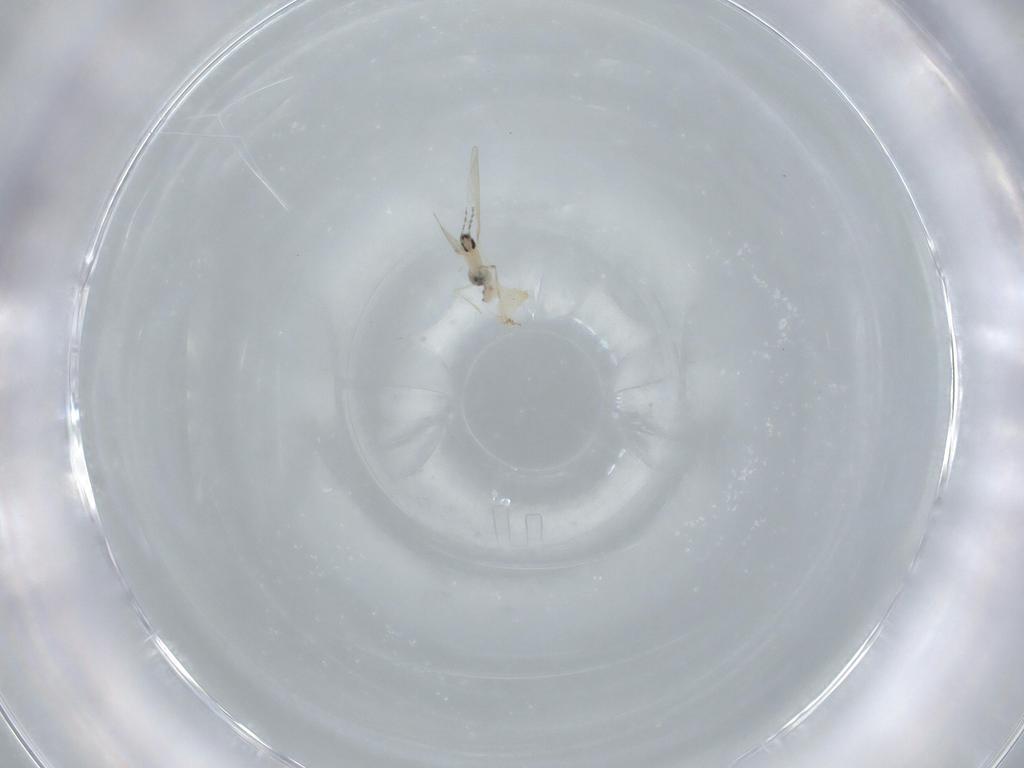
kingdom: Animalia
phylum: Arthropoda
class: Insecta
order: Diptera
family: Cecidomyiidae
